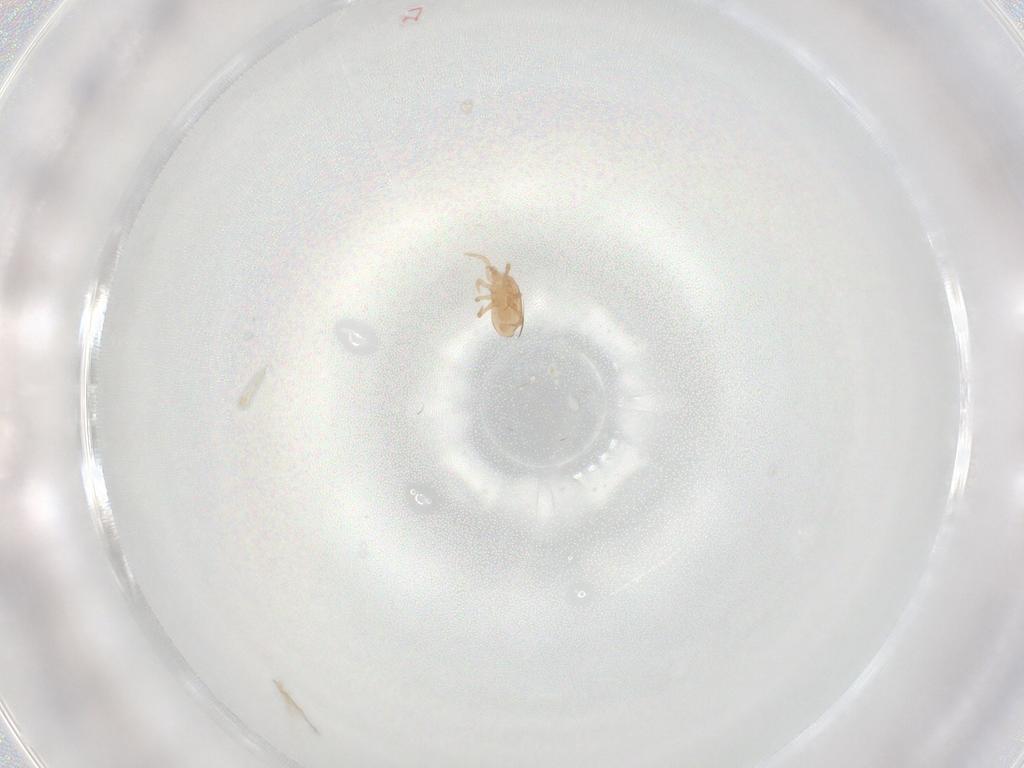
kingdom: Animalia
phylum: Arthropoda
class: Arachnida
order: Mesostigmata
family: Laelapidae
